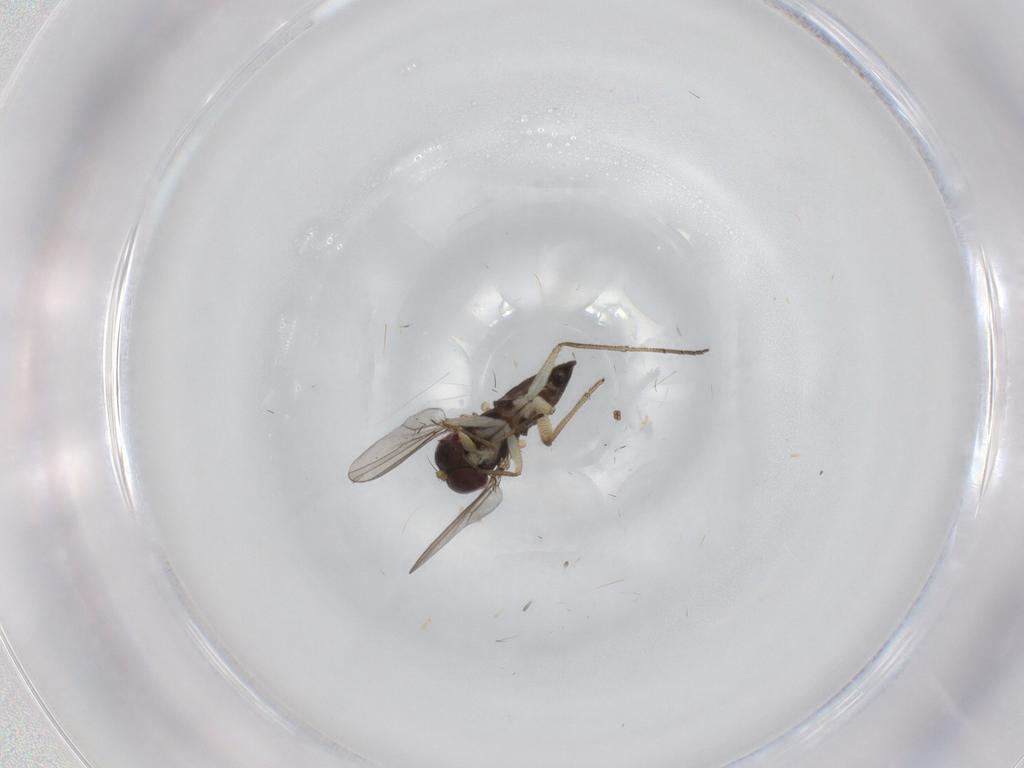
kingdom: Animalia
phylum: Arthropoda
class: Insecta
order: Diptera
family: Dolichopodidae
